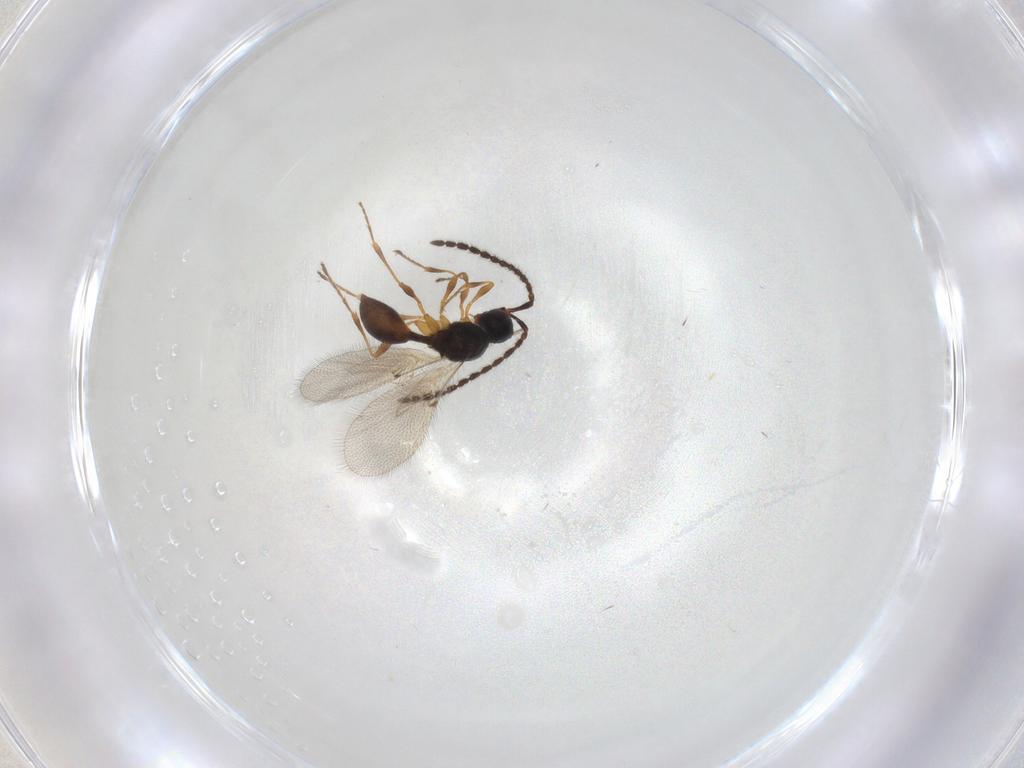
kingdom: Animalia
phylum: Arthropoda
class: Insecta
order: Hymenoptera
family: Diapriidae
